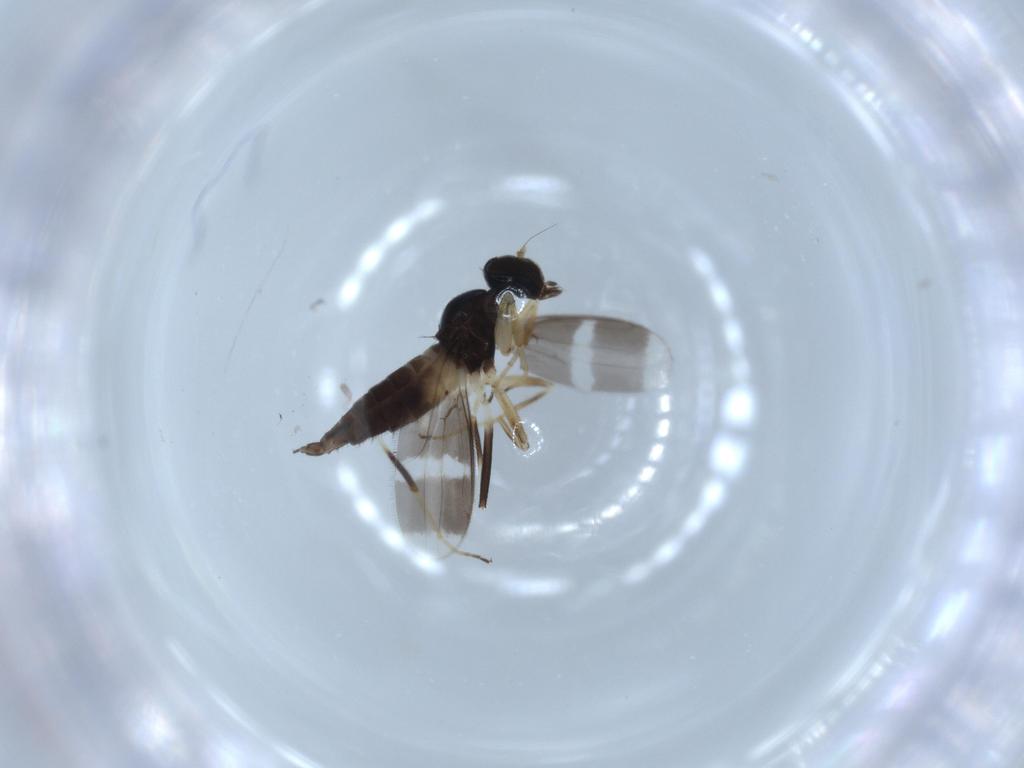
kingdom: Animalia
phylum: Arthropoda
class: Insecta
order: Diptera
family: Hybotidae
